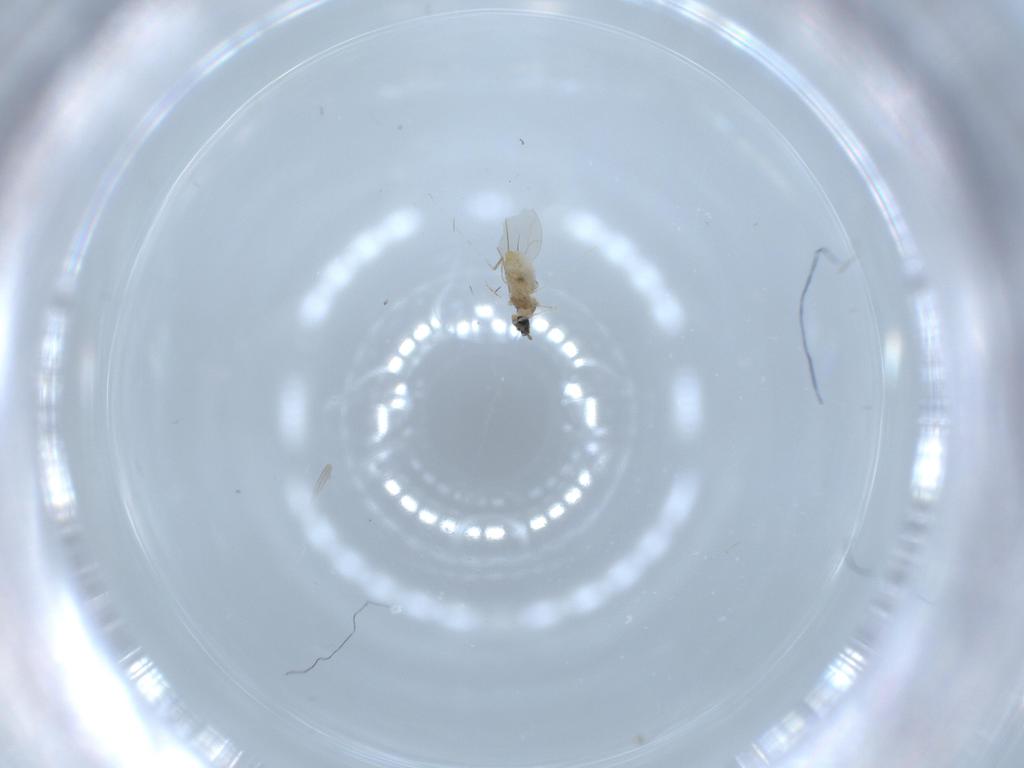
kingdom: Animalia
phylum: Arthropoda
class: Insecta
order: Diptera
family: Cecidomyiidae
